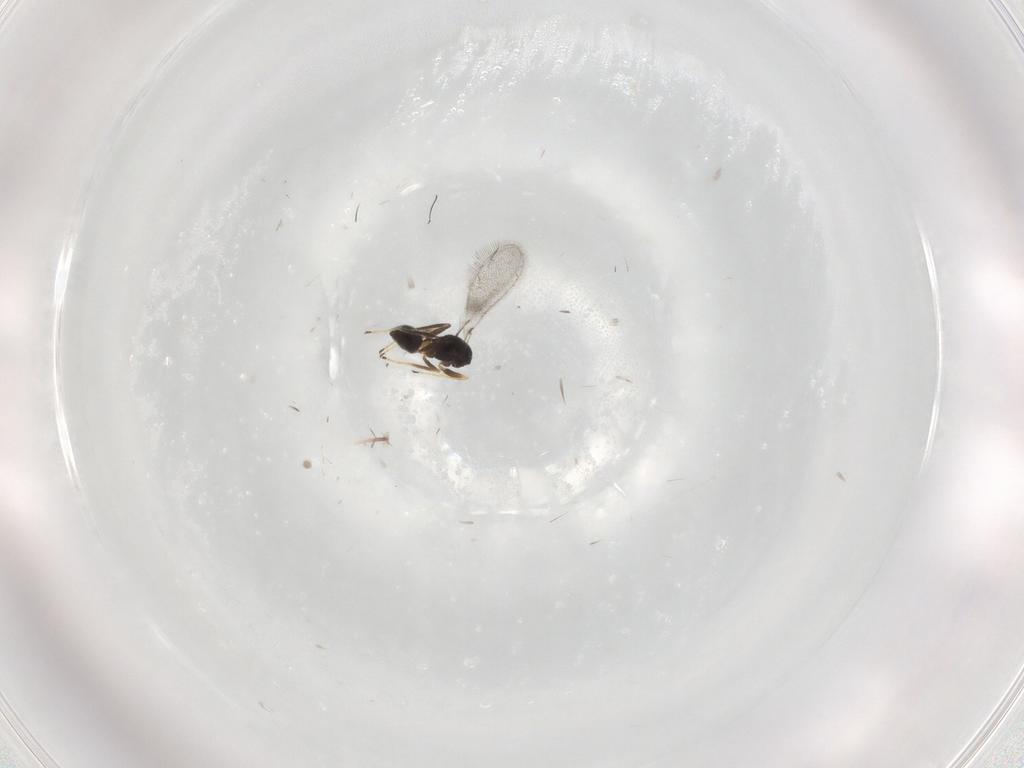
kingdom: Animalia
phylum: Arthropoda
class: Insecta
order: Hymenoptera
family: Mymaridae
